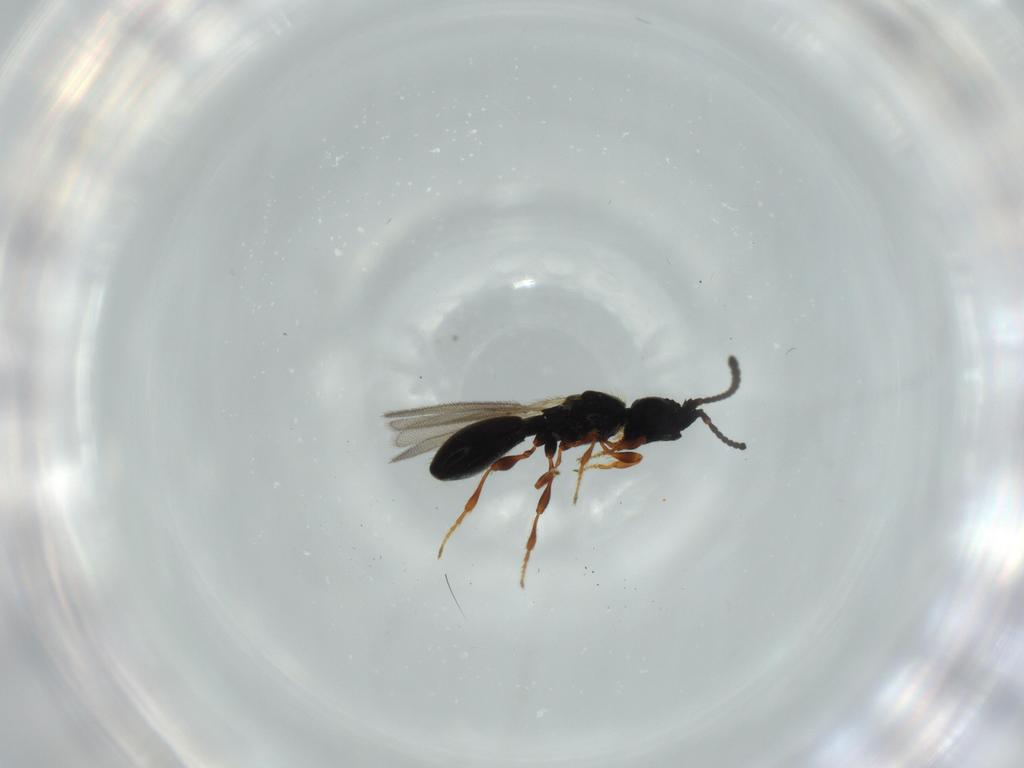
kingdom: Animalia
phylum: Arthropoda
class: Insecta
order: Hymenoptera
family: Diapriidae
